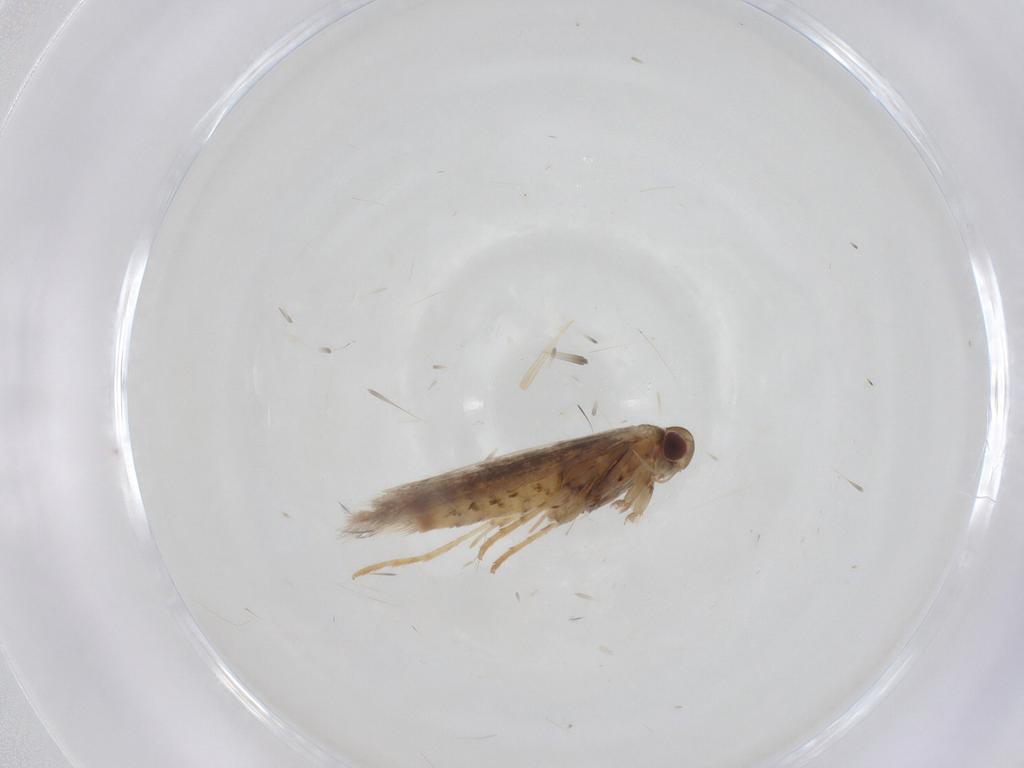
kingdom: Animalia
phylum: Arthropoda
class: Insecta
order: Lepidoptera
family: Gracillariidae
